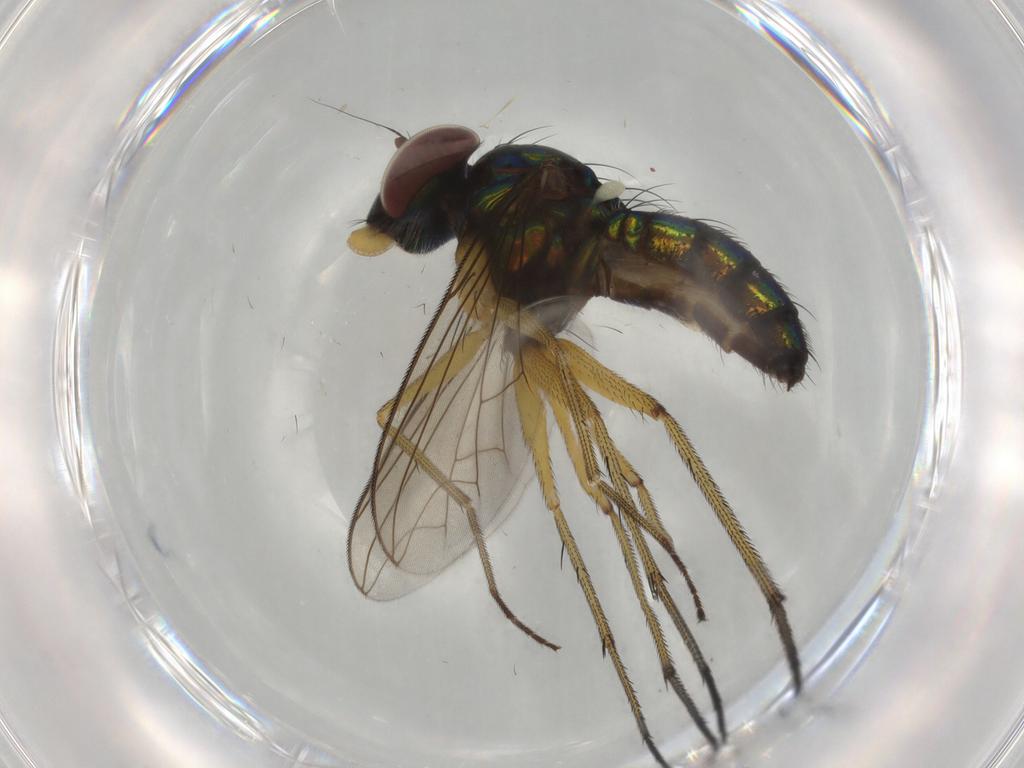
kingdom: Animalia
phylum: Arthropoda
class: Insecta
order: Diptera
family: Dolichopodidae
